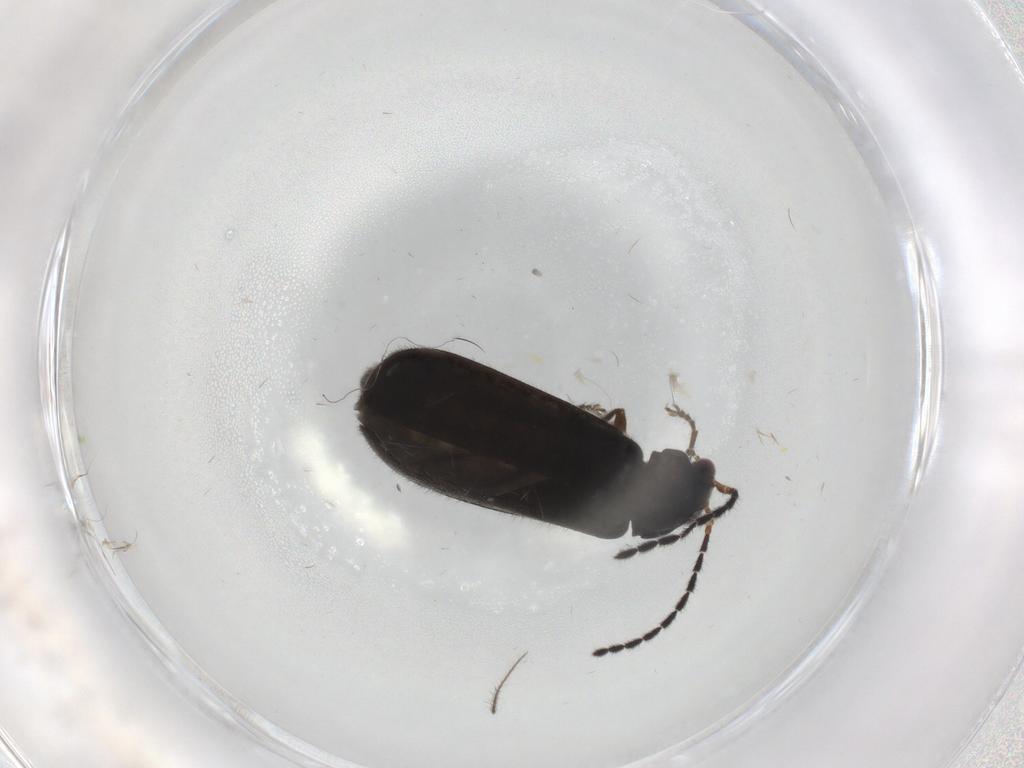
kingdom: Animalia
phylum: Arthropoda
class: Insecta
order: Coleoptera
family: Cantharidae
